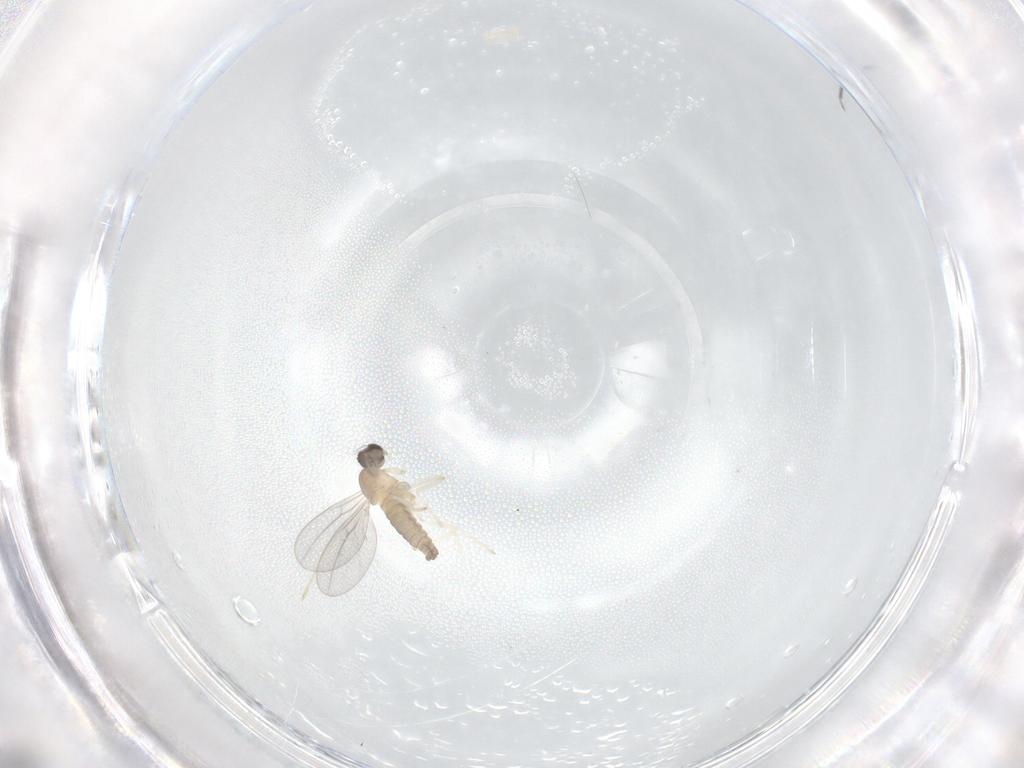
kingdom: Animalia
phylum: Arthropoda
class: Insecta
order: Diptera
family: Cecidomyiidae
